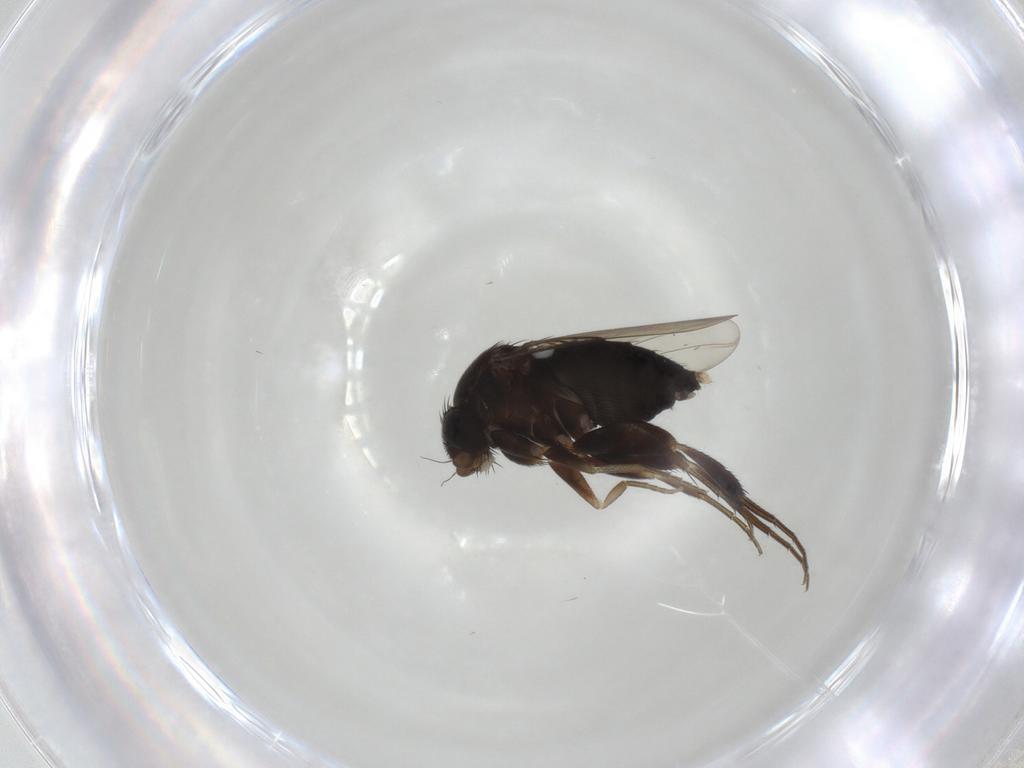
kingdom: Animalia
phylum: Arthropoda
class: Insecta
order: Diptera
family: Phoridae
